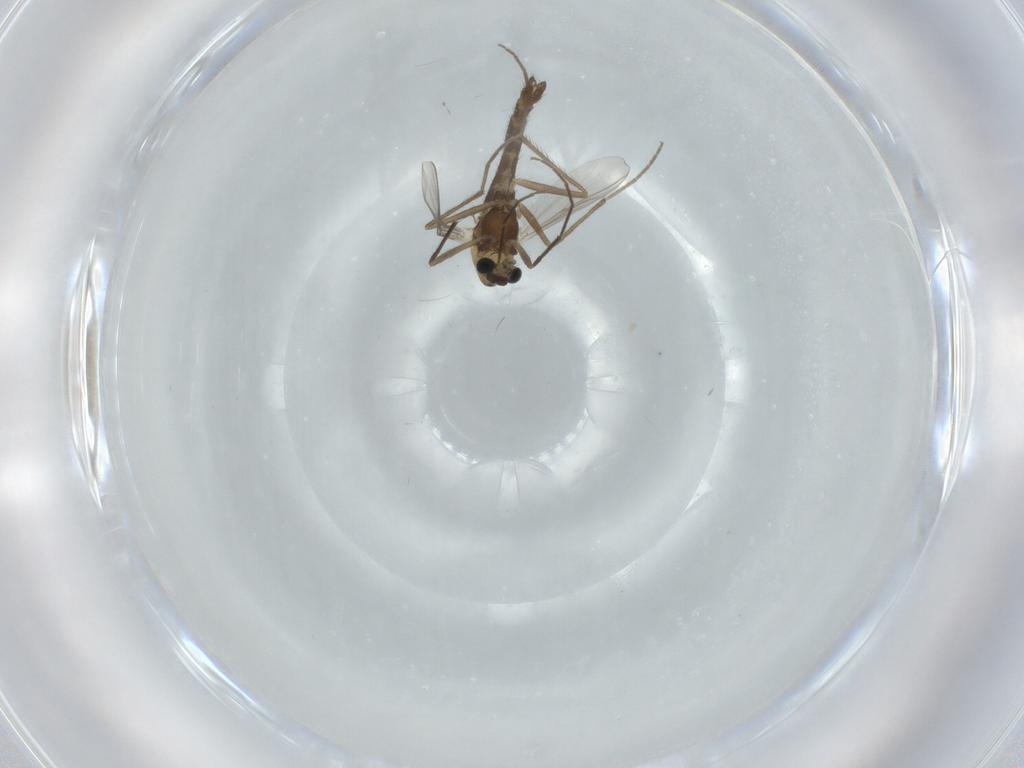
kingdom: Animalia
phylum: Arthropoda
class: Insecta
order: Diptera
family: Chironomidae
